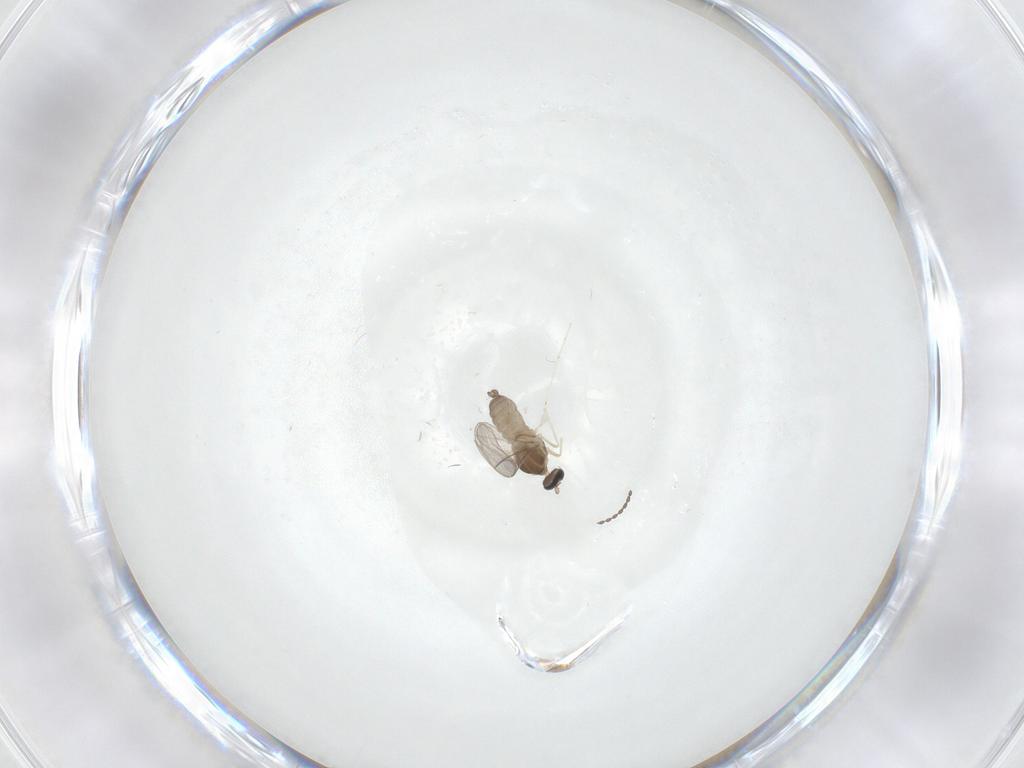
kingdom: Animalia
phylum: Arthropoda
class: Insecta
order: Diptera
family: Cecidomyiidae
